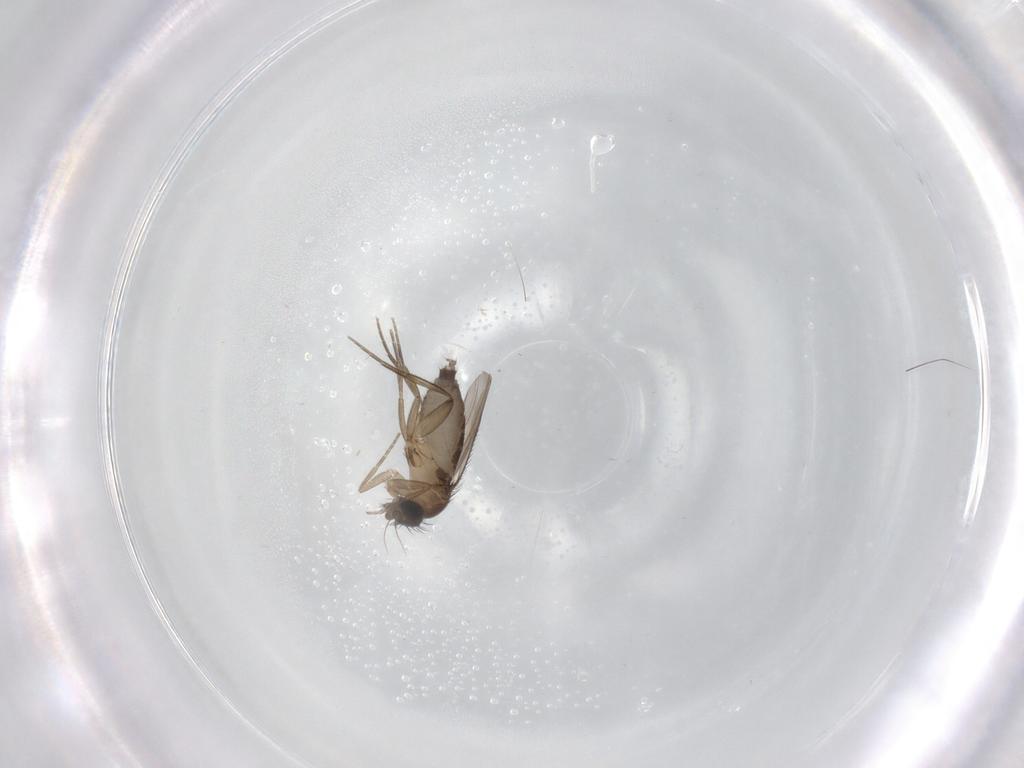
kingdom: Animalia
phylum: Arthropoda
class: Insecta
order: Diptera
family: Phoridae
